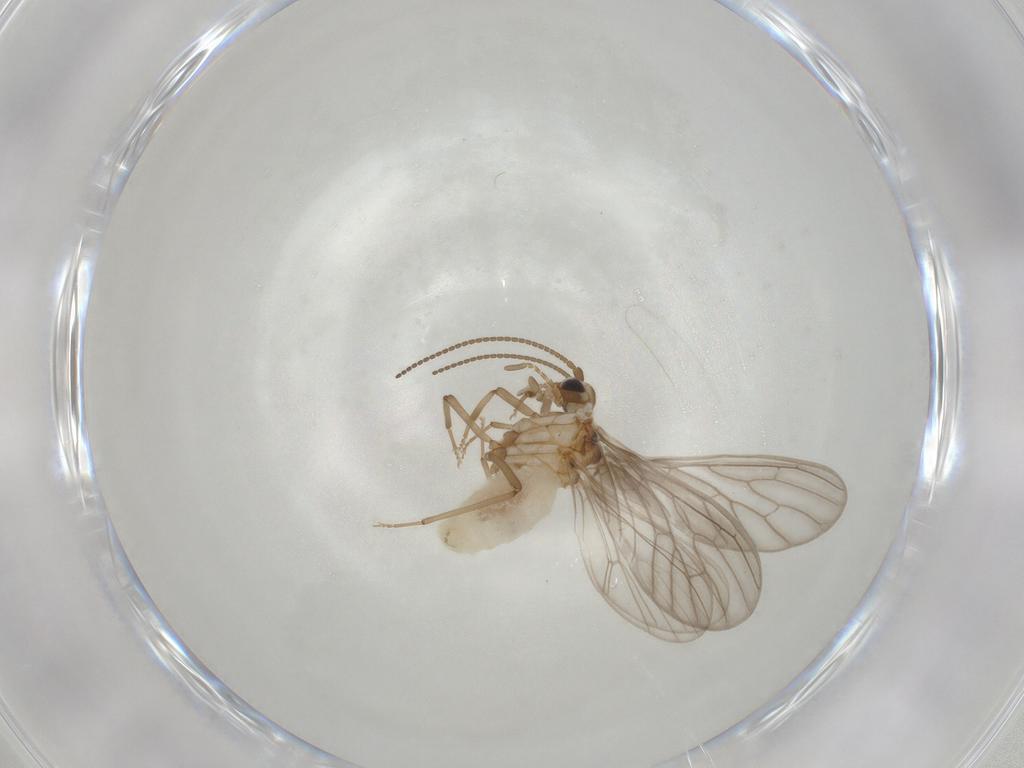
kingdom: Animalia
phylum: Arthropoda
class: Insecta
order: Neuroptera
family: Coniopterygidae
